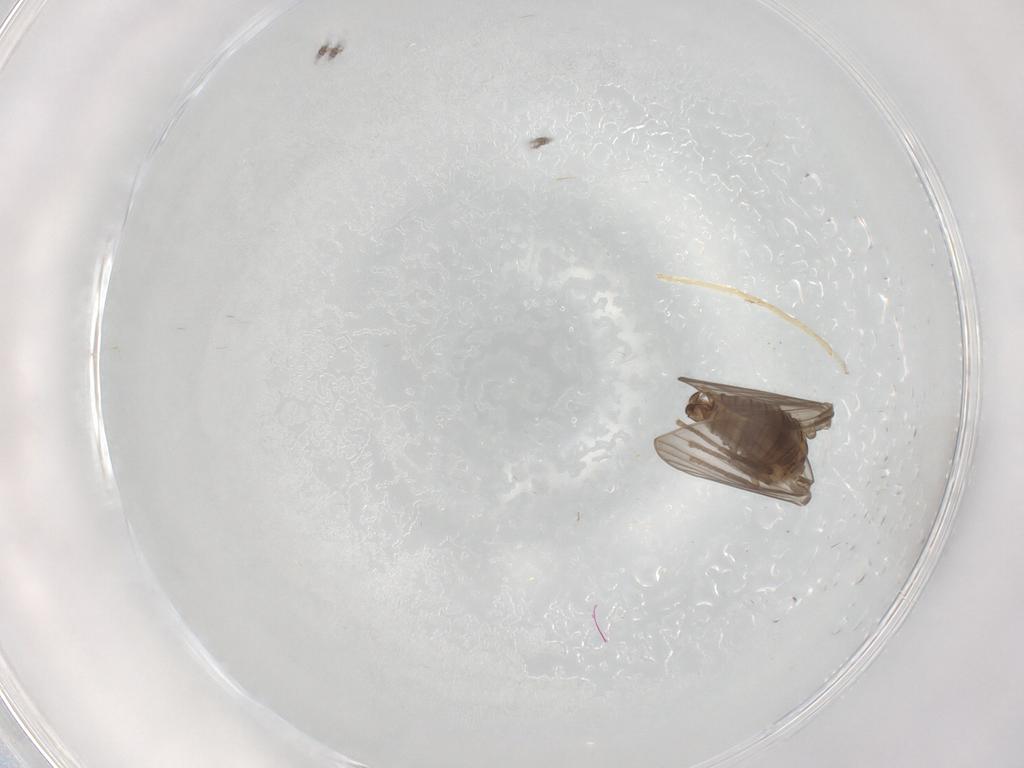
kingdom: Animalia
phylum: Arthropoda
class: Insecta
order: Diptera
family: Psychodidae
